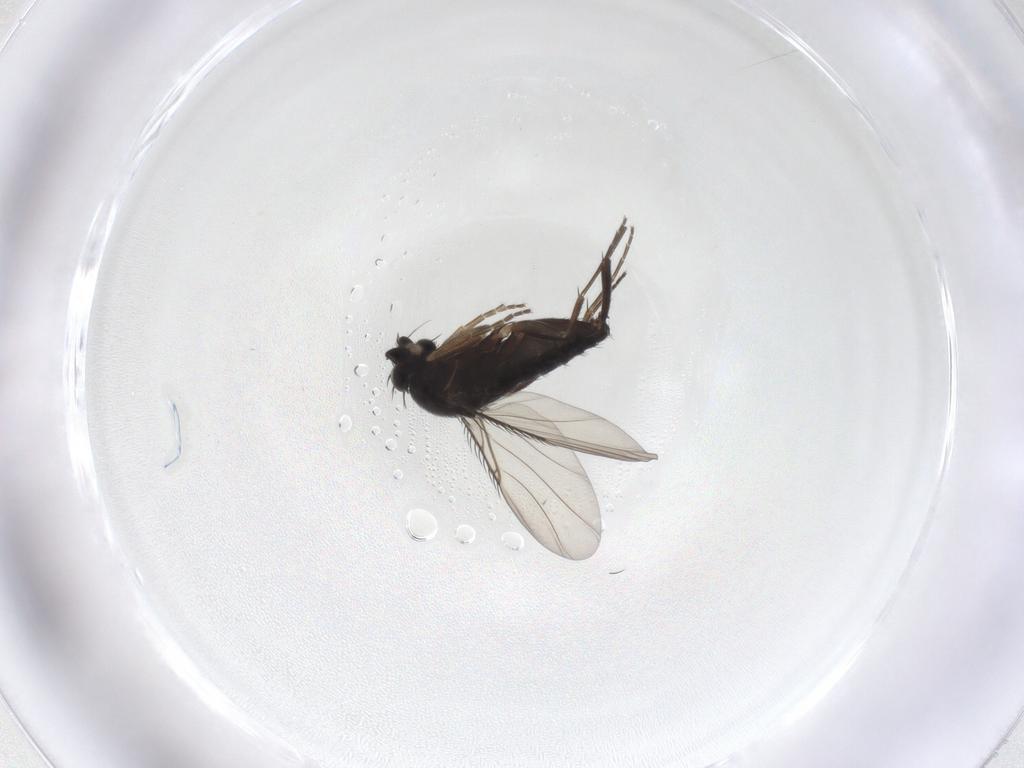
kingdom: Animalia
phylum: Arthropoda
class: Insecta
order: Diptera
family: Phoridae
